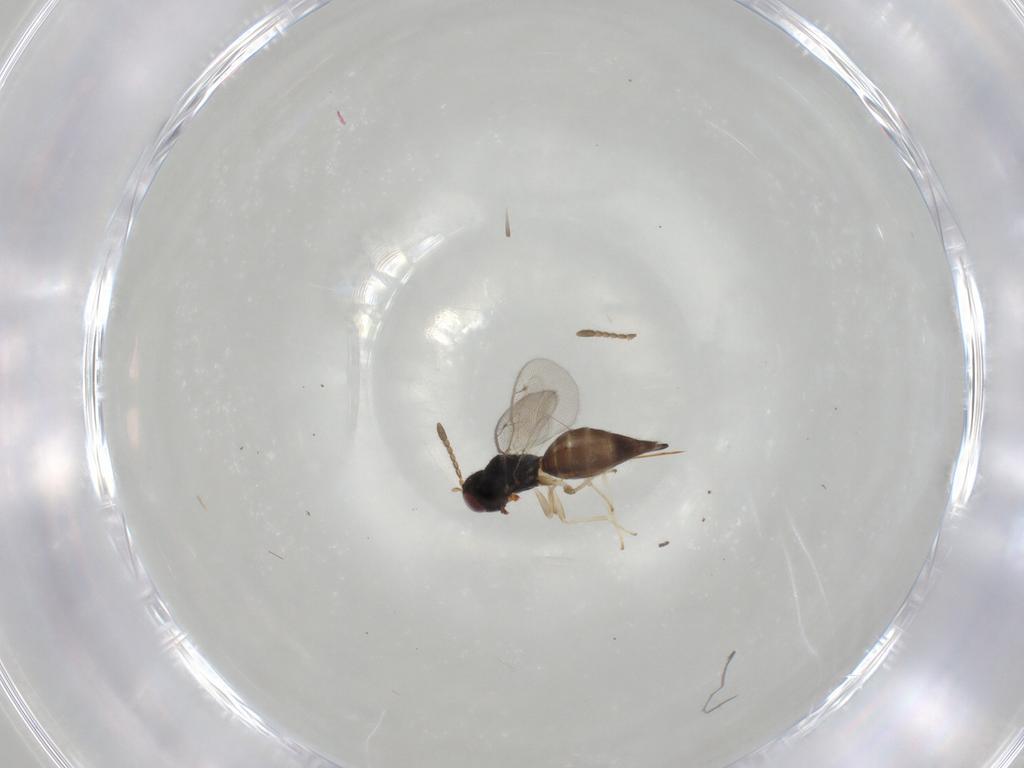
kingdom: Animalia
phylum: Arthropoda
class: Insecta
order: Hymenoptera
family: Pteromalidae
